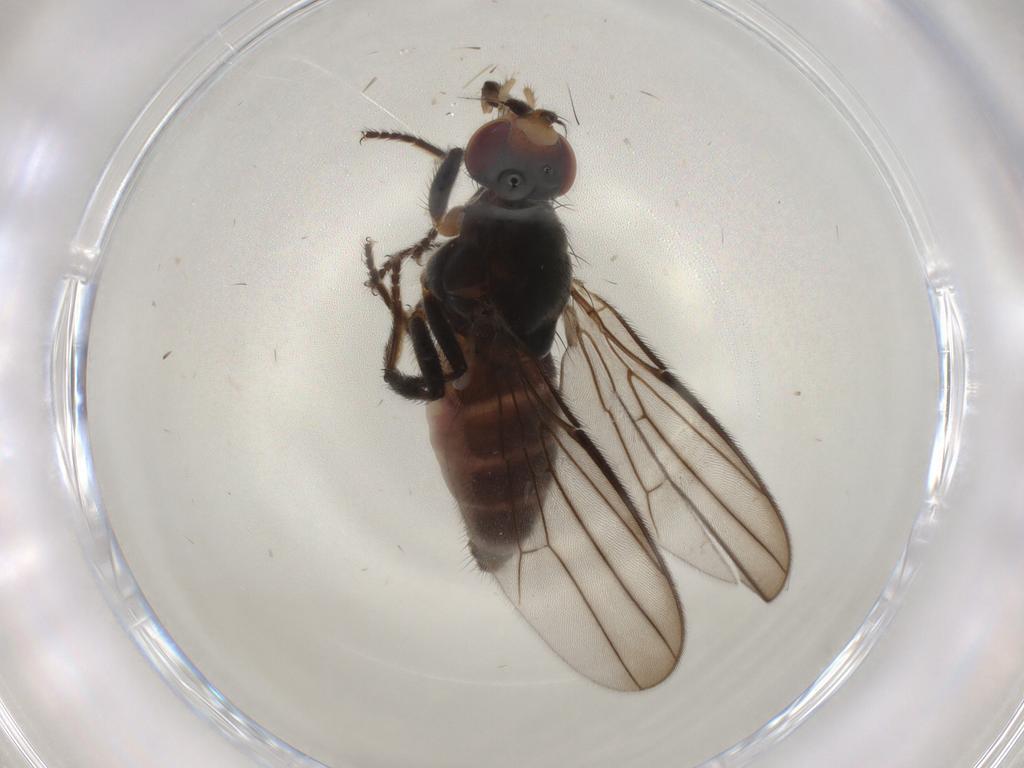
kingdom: Animalia
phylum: Arthropoda
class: Insecta
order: Diptera
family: Chloropidae
